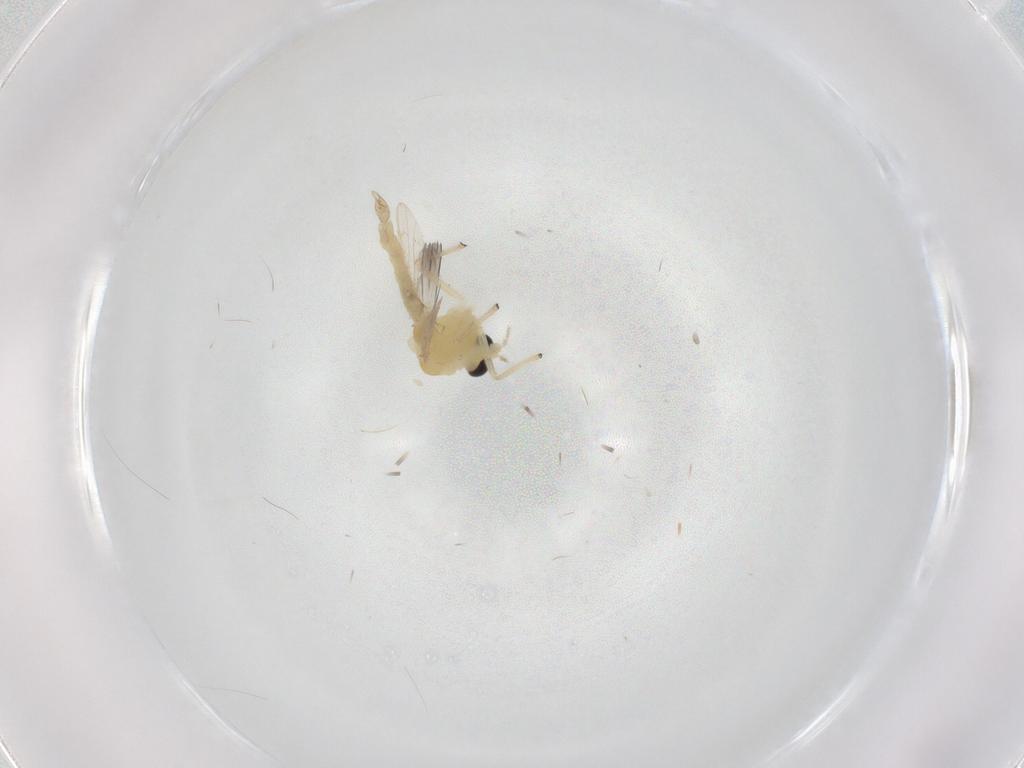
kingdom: Animalia
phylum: Arthropoda
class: Insecta
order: Diptera
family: Chironomidae
